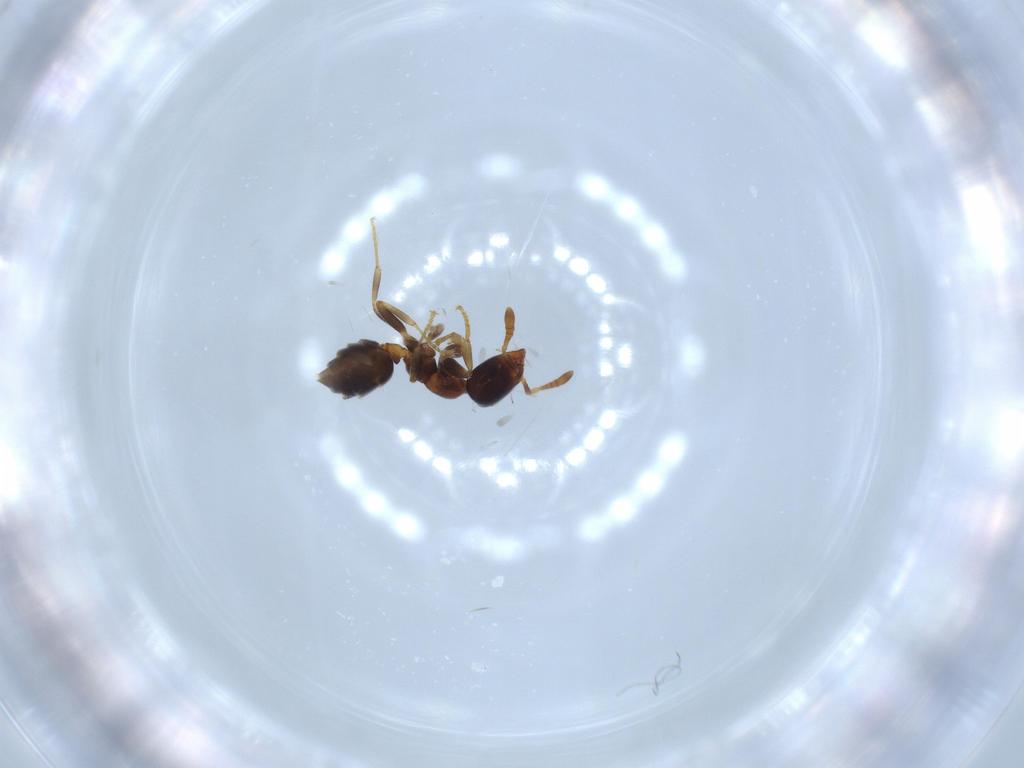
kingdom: Animalia
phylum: Arthropoda
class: Insecta
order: Hymenoptera
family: Formicidae
